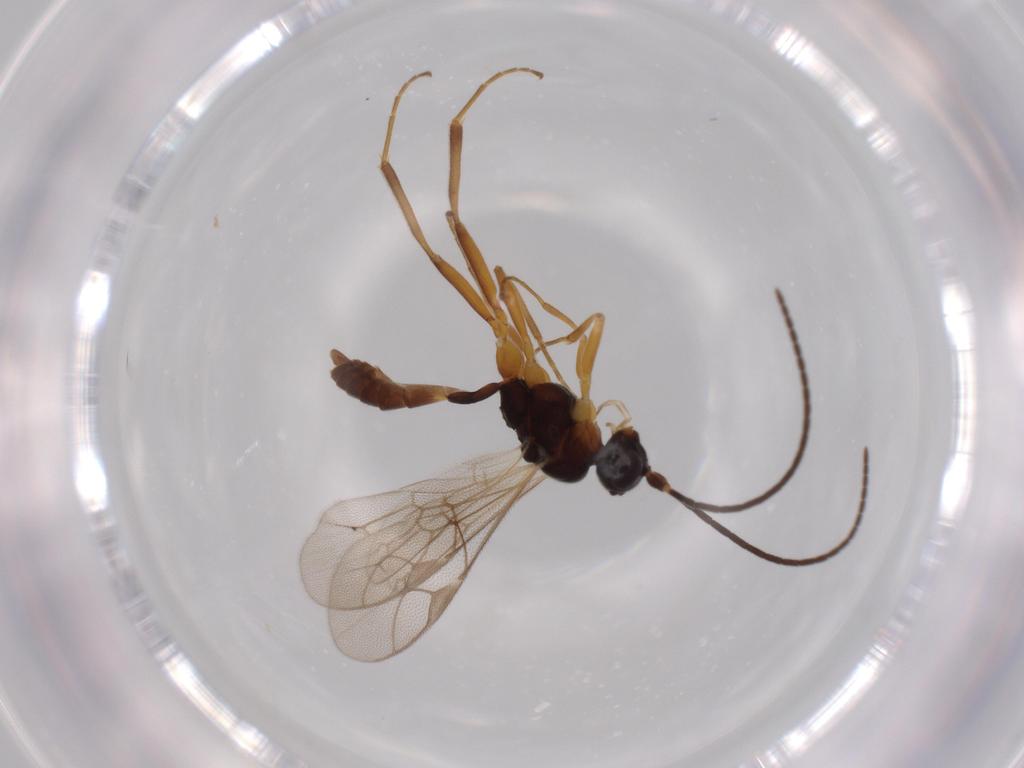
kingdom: Animalia
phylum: Arthropoda
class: Insecta
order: Hymenoptera
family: Ichneumonidae
